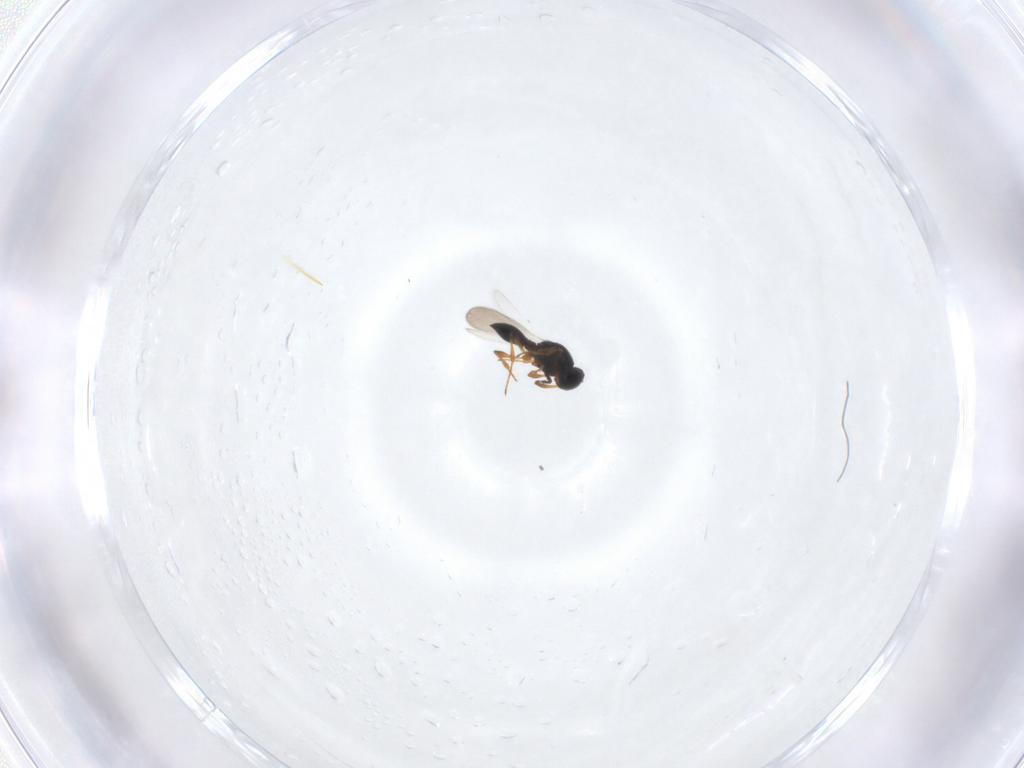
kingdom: Animalia
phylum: Arthropoda
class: Insecta
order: Hymenoptera
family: Platygastridae
